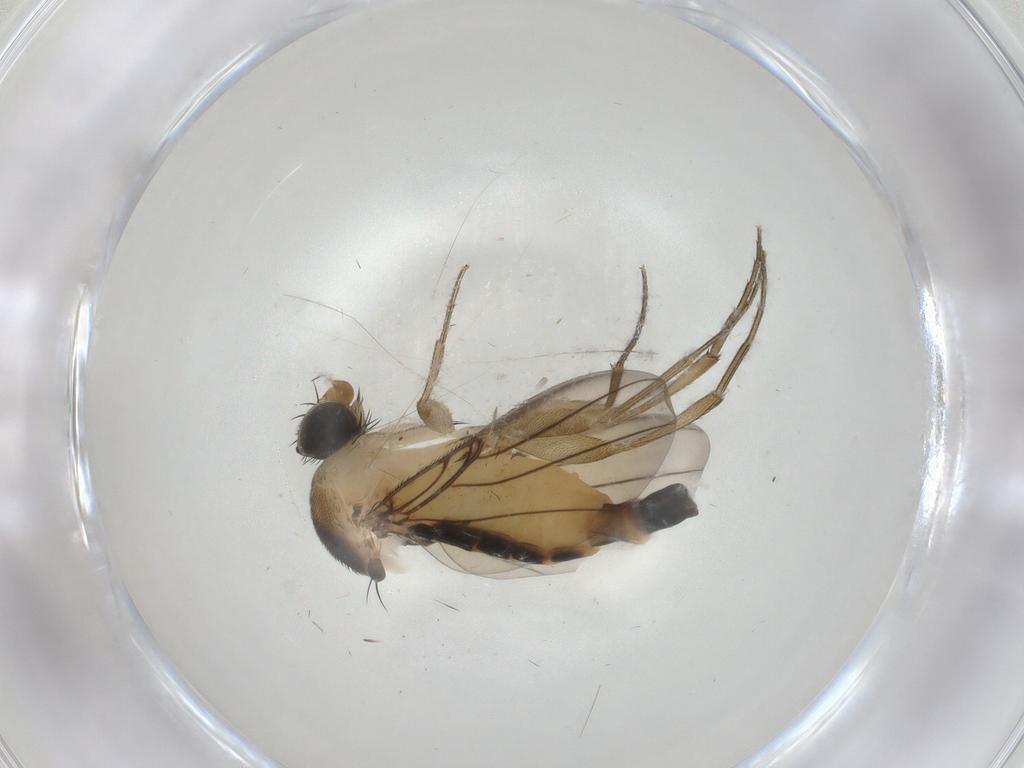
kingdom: Animalia
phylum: Arthropoda
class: Insecta
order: Diptera
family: Phoridae
